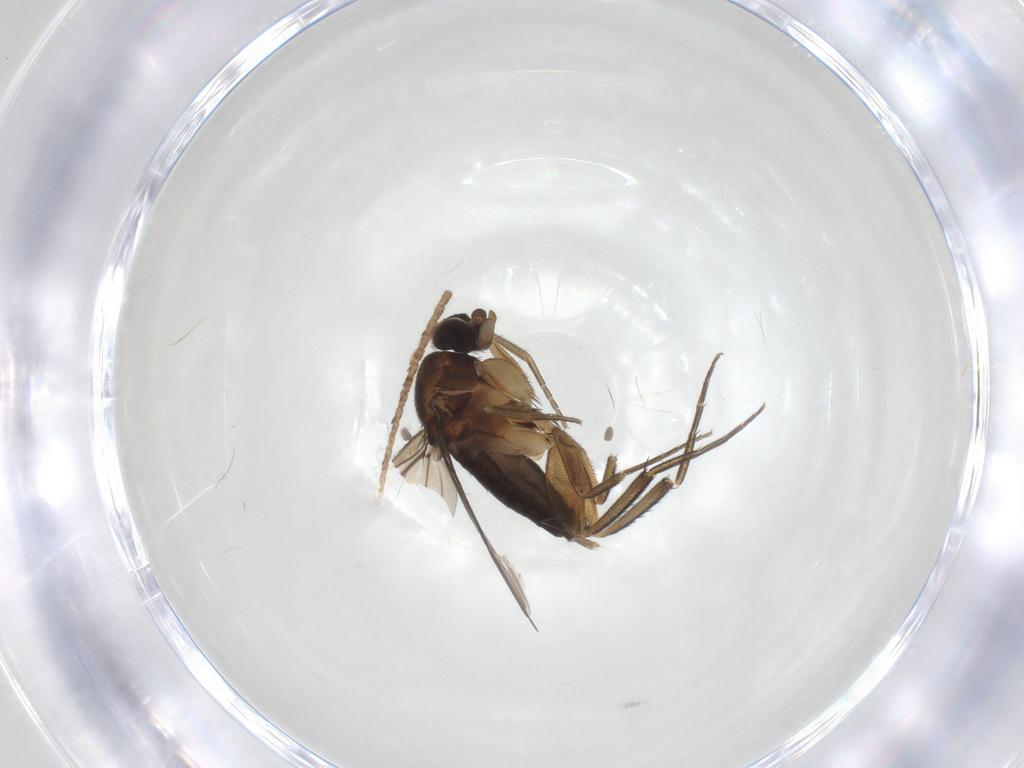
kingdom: Animalia
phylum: Arthropoda
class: Insecta
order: Diptera
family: Phoridae
